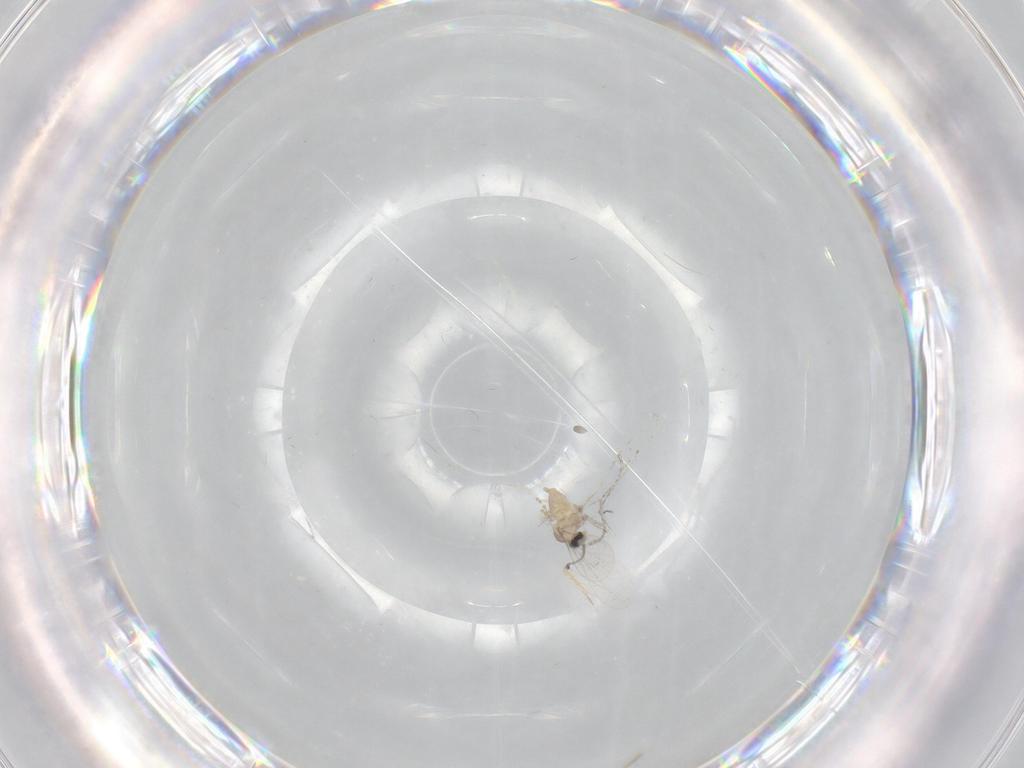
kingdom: Animalia
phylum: Arthropoda
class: Insecta
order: Diptera
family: Cecidomyiidae
